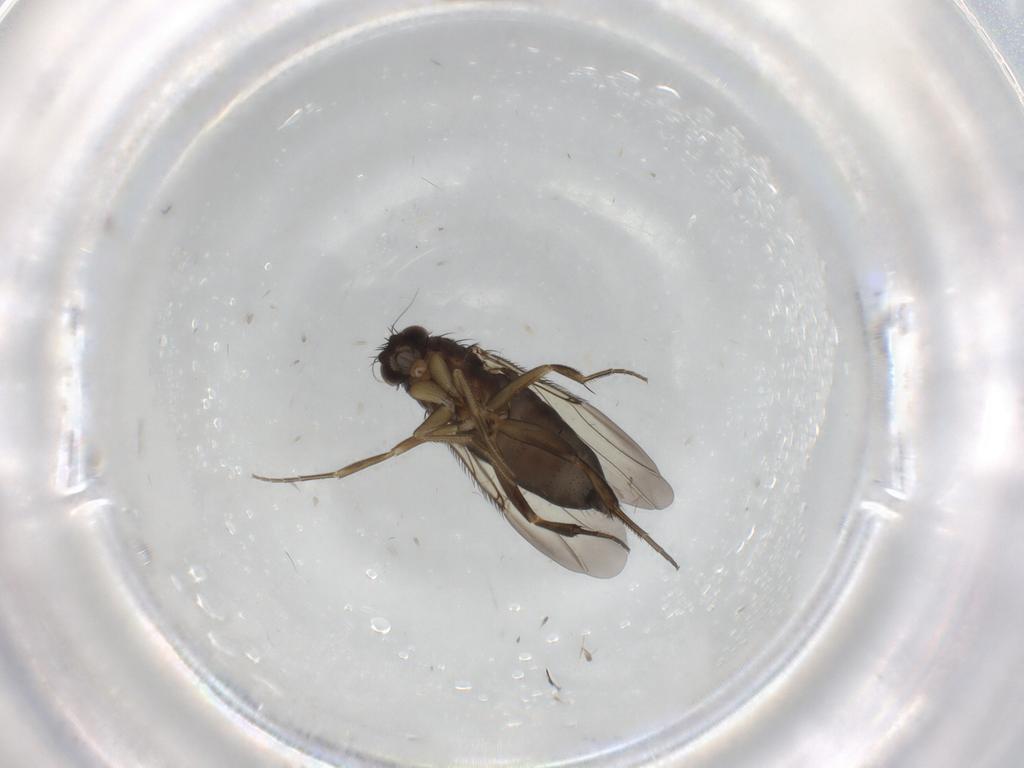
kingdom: Animalia
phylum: Arthropoda
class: Insecta
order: Diptera
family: Phoridae
